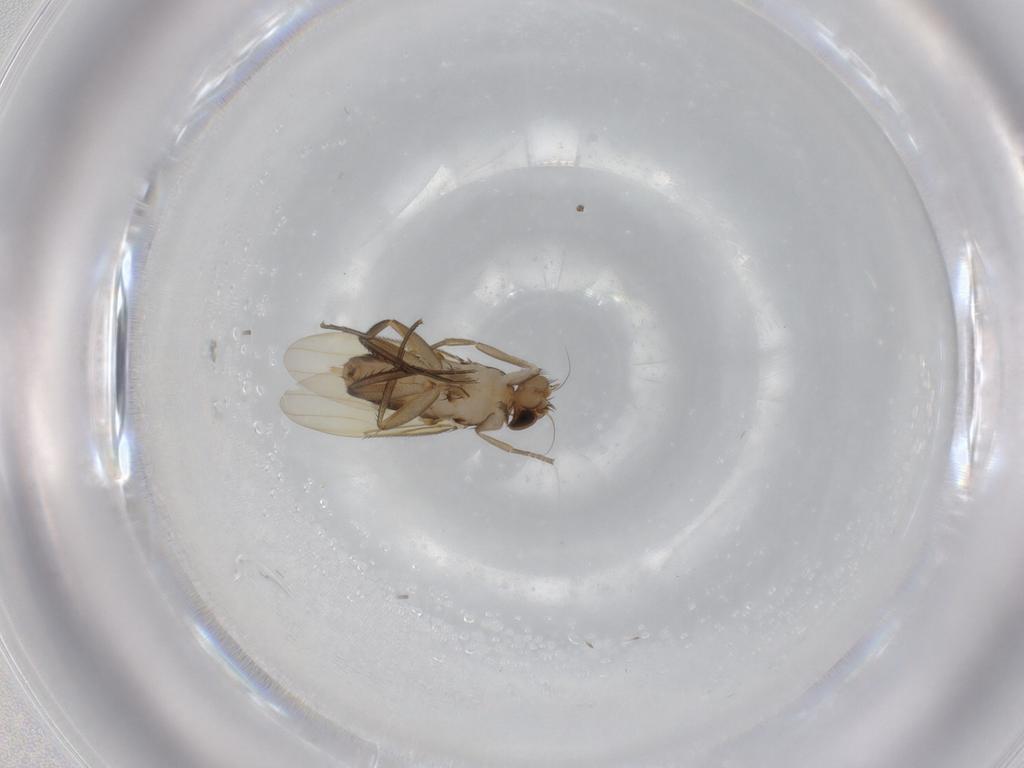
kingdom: Animalia
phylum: Arthropoda
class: Insecta
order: Diptera
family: Phoridae
